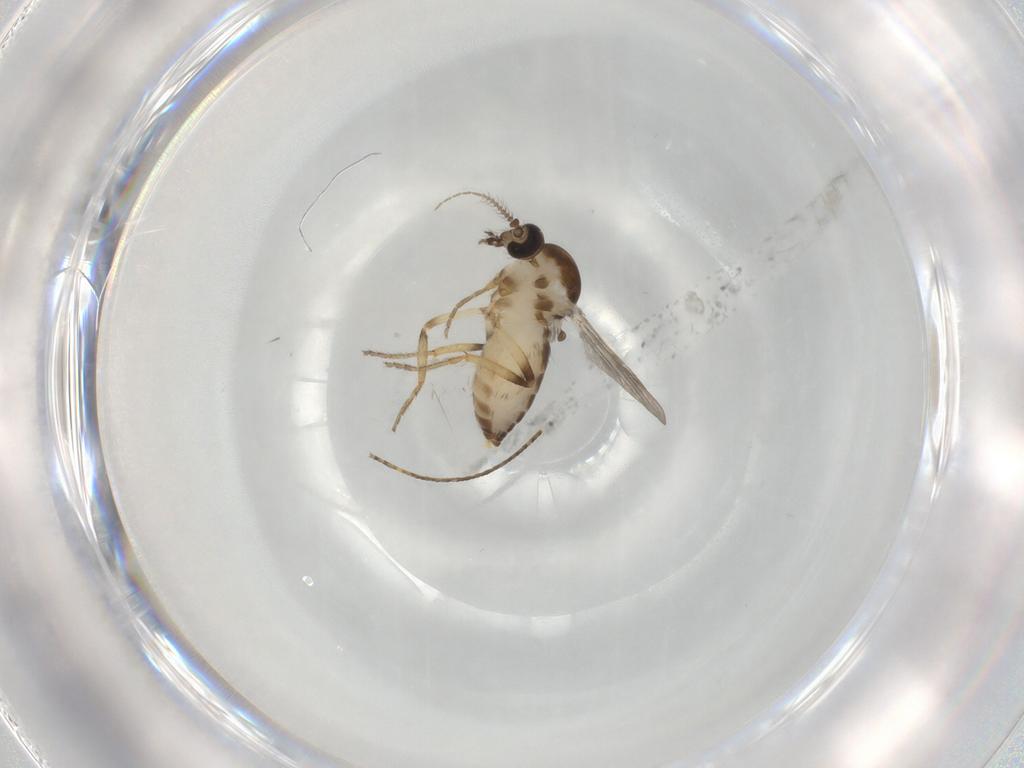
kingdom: Animalia
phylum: Arthropoda
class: Insecta
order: Diptera
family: Ceratopogonidae
